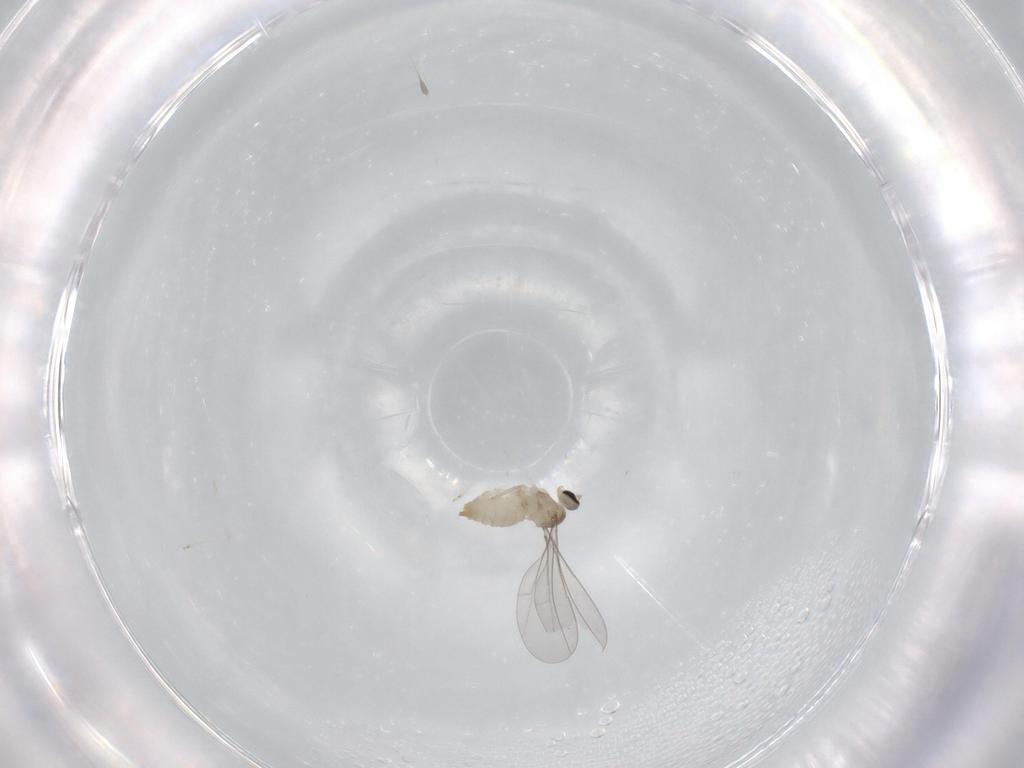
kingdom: Animalia
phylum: Arthropoda
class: Insecta
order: Diptera
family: Cecidomyiidae
